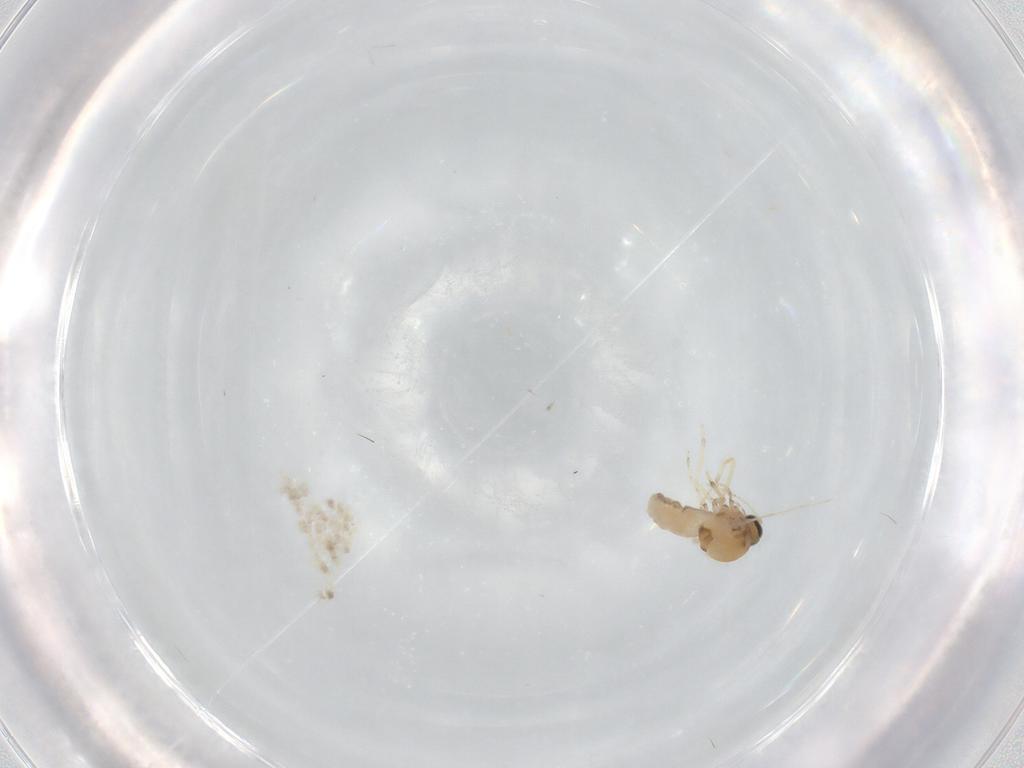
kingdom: Animalia
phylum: Arthropoda
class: Insecta
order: Diptera
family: Ceratopogonidae
